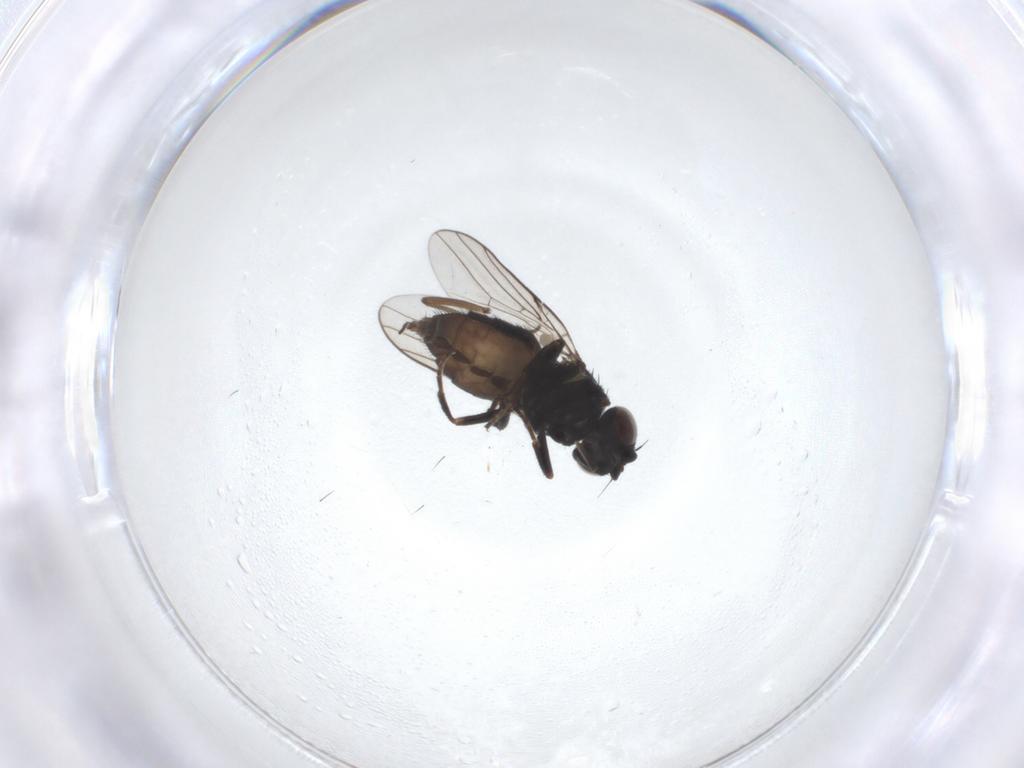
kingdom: Animalia
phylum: Arthropoda
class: Insecta
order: Diptera
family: Chloropidae
